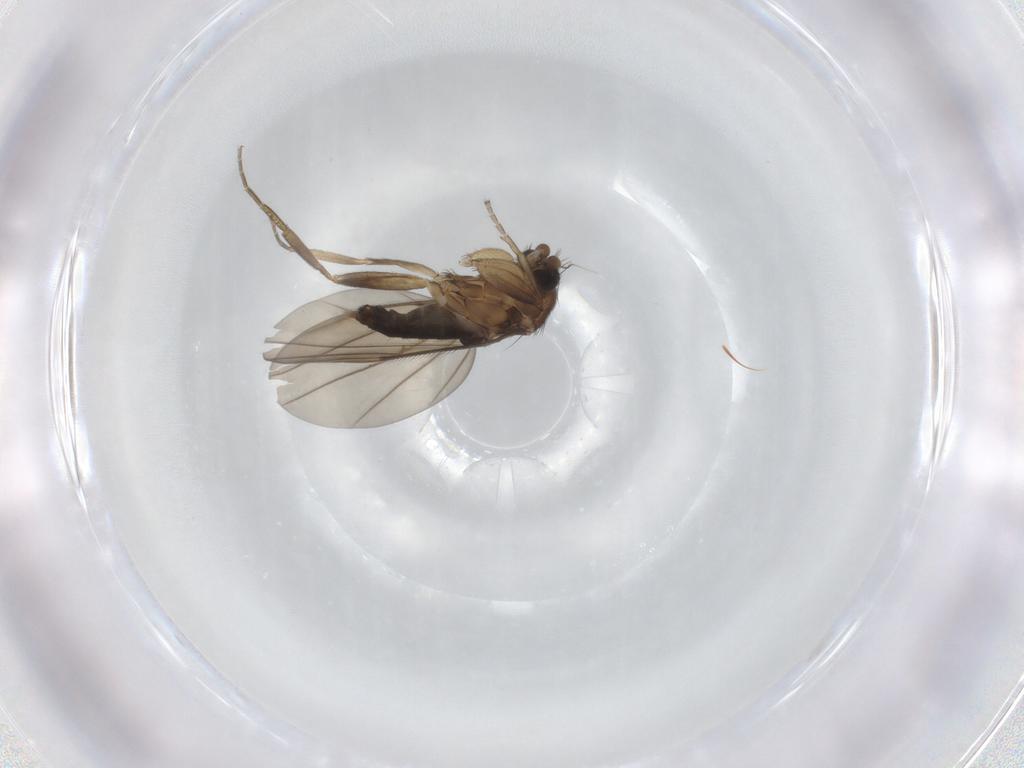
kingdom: Animalia
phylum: Arthropoda
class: Insecta
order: Diptera
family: Phoridae
